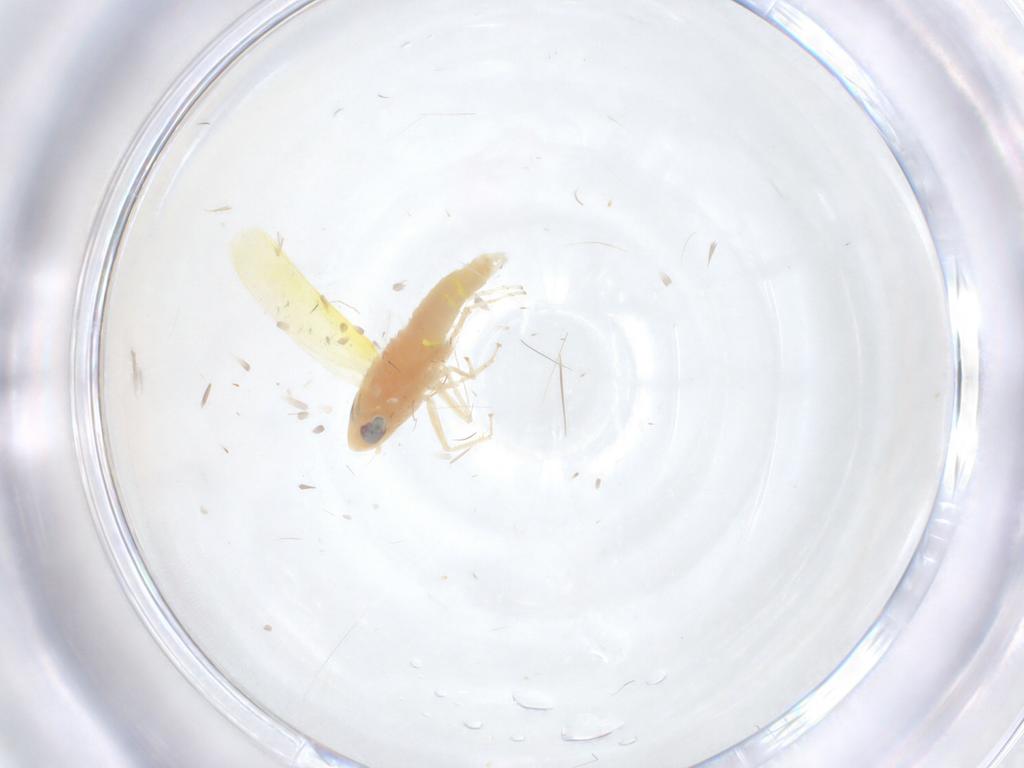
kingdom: Animalia
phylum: Arthropoda
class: Insecta
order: Hemiptera
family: Cicadellidae
